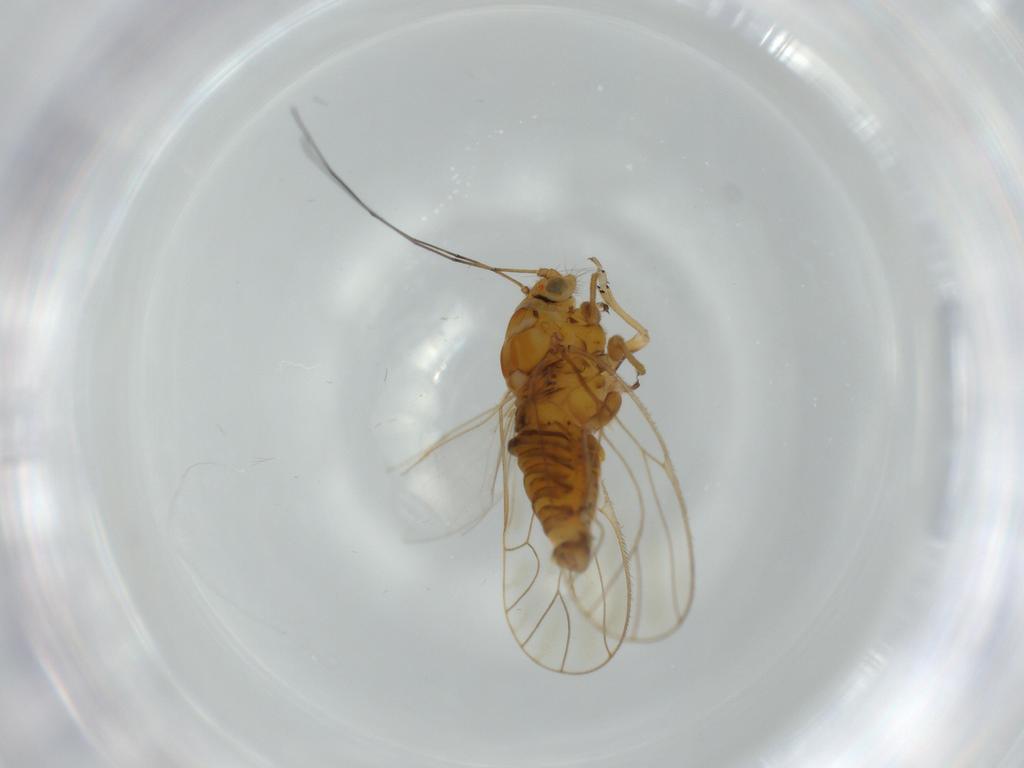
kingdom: Animalia
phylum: Arthropoda
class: Insecta
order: Hemiptera
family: Psyllidae
